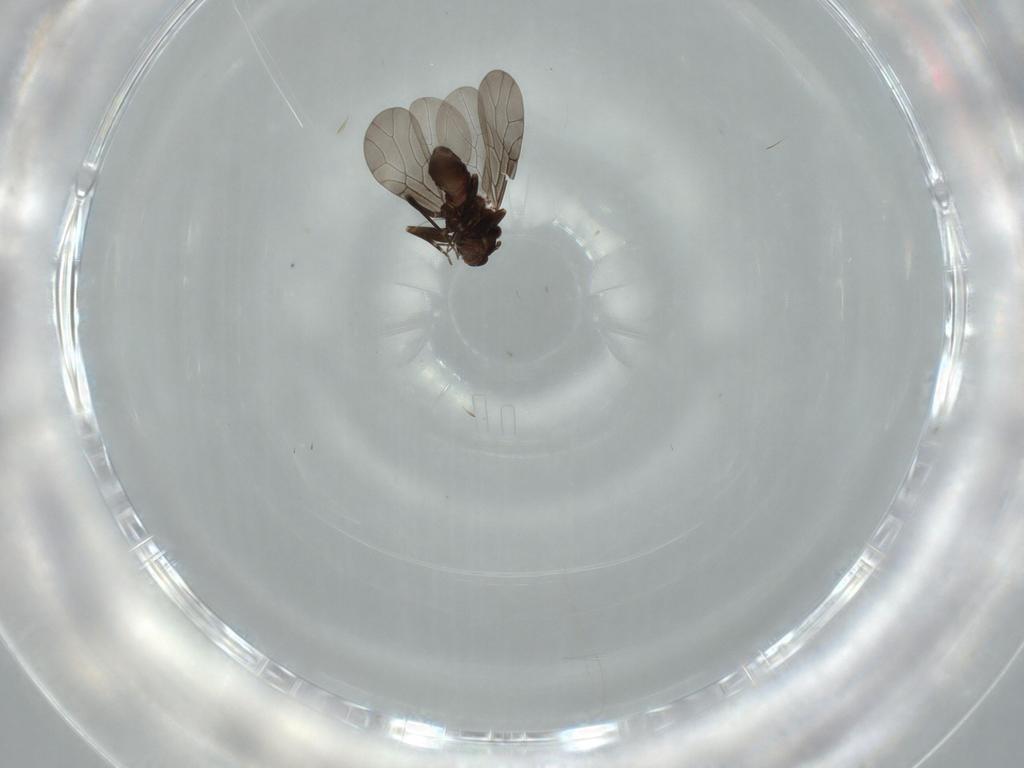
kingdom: Animalia
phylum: Arthropoda
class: Insecta
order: Psocodea
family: Lepidopsocidae
